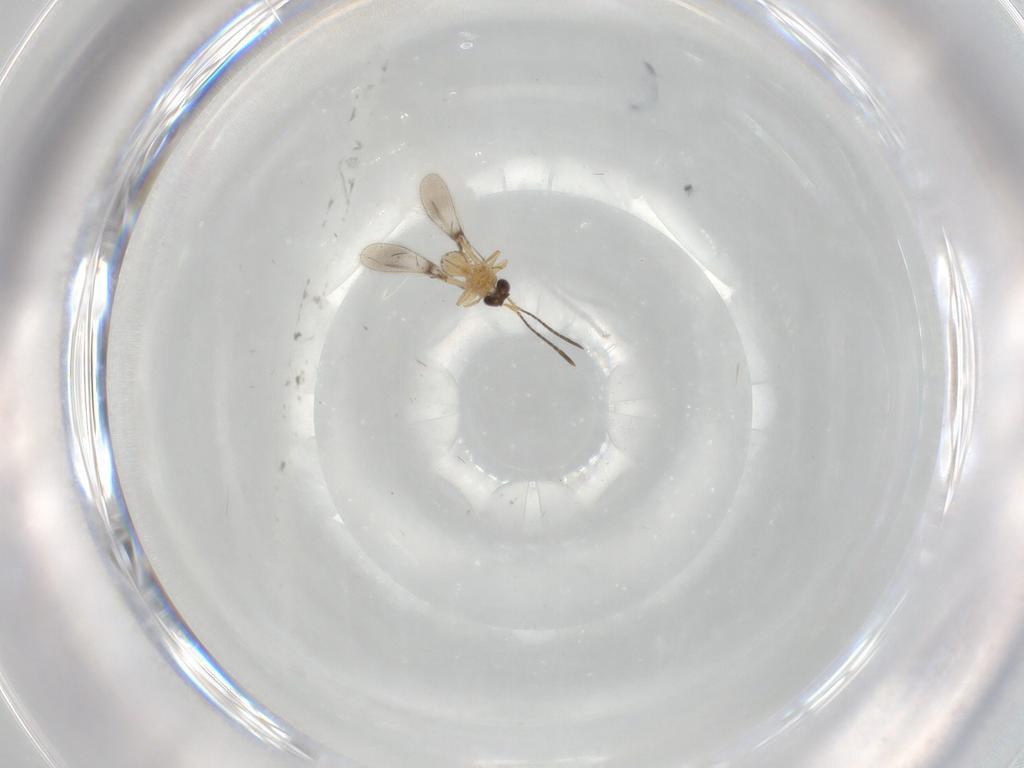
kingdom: Animalia
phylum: Arthropoda
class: Insecta
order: Hymenoptera
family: Mymaridae
